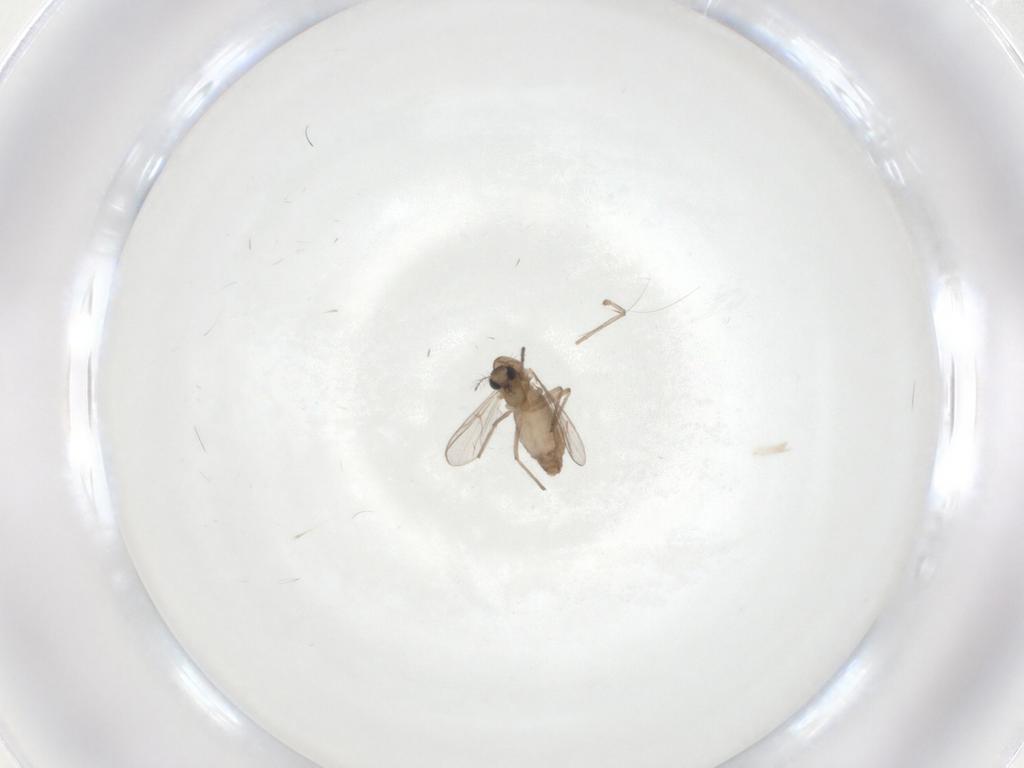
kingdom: Animalia
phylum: Arthropoda
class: Insecta
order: Diptera
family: Chironomidae
